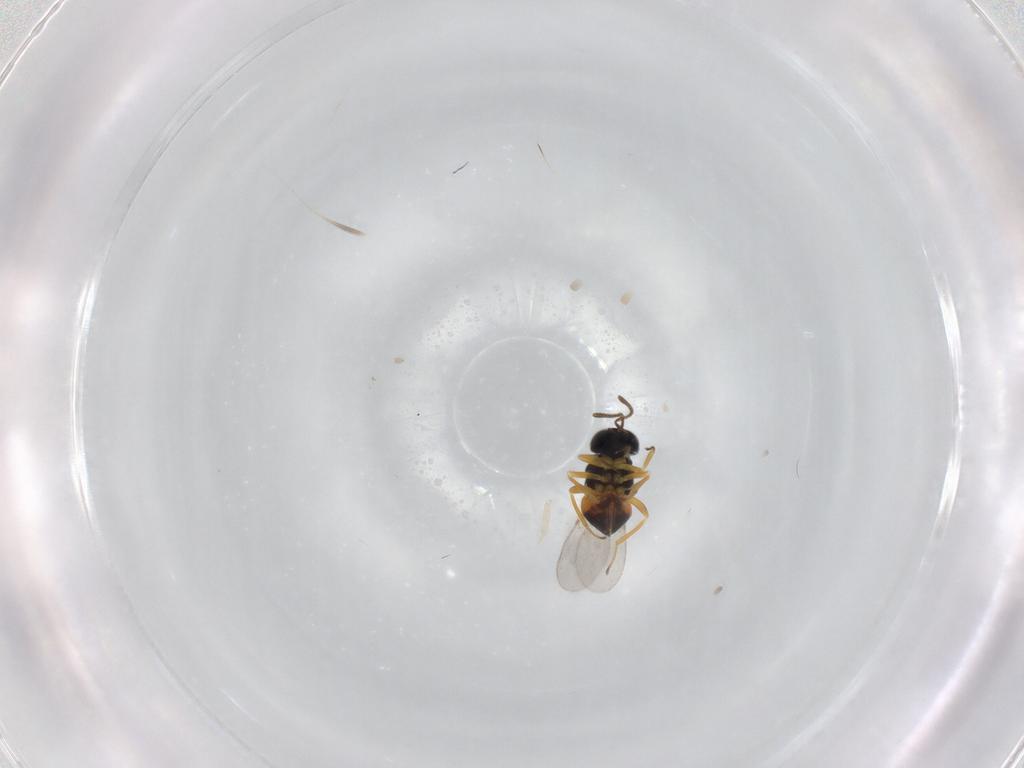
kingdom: Animalia
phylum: Arthropoda
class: Insecta
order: Hymenoptera
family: Encyrtidae
